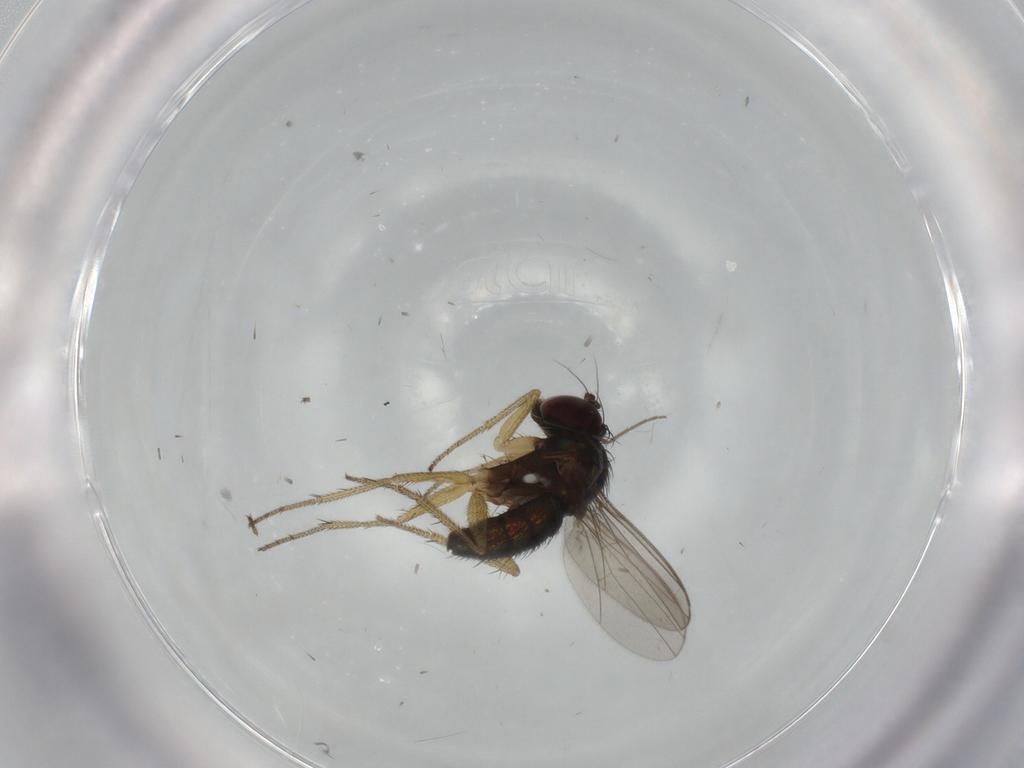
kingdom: Animalia
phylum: Arthropoda
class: Insecta
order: Diptera
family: Dolichopodidae
